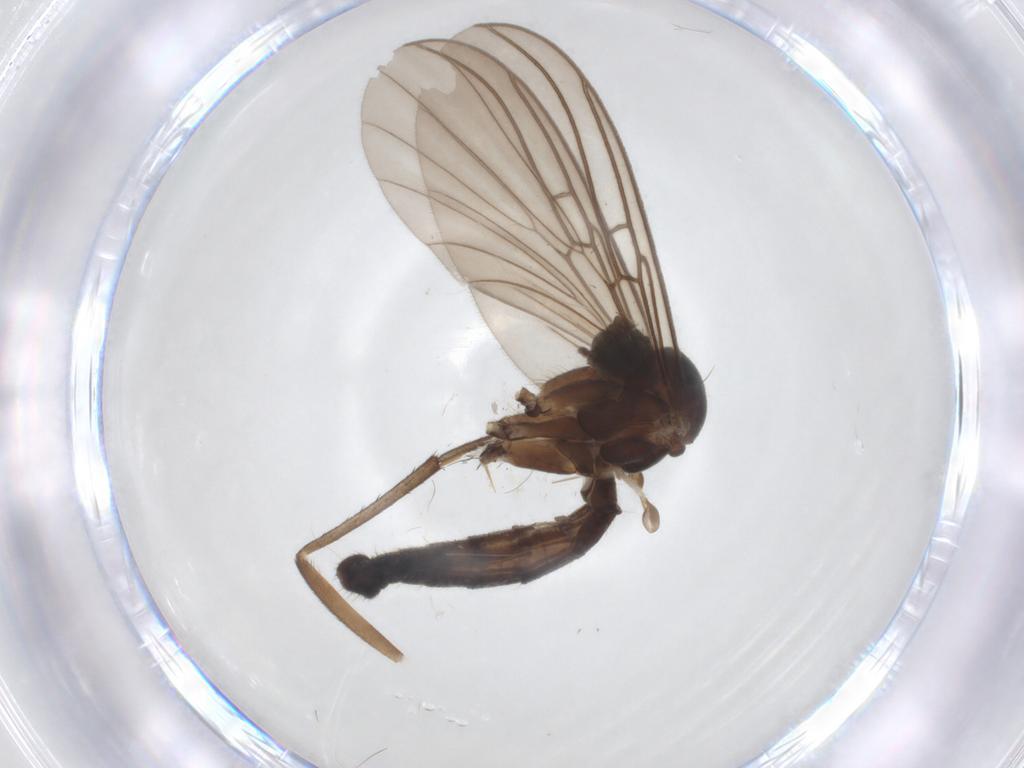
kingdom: Animalia
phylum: Arthropoda
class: Insecta
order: Diptera
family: Mycetophilidae
